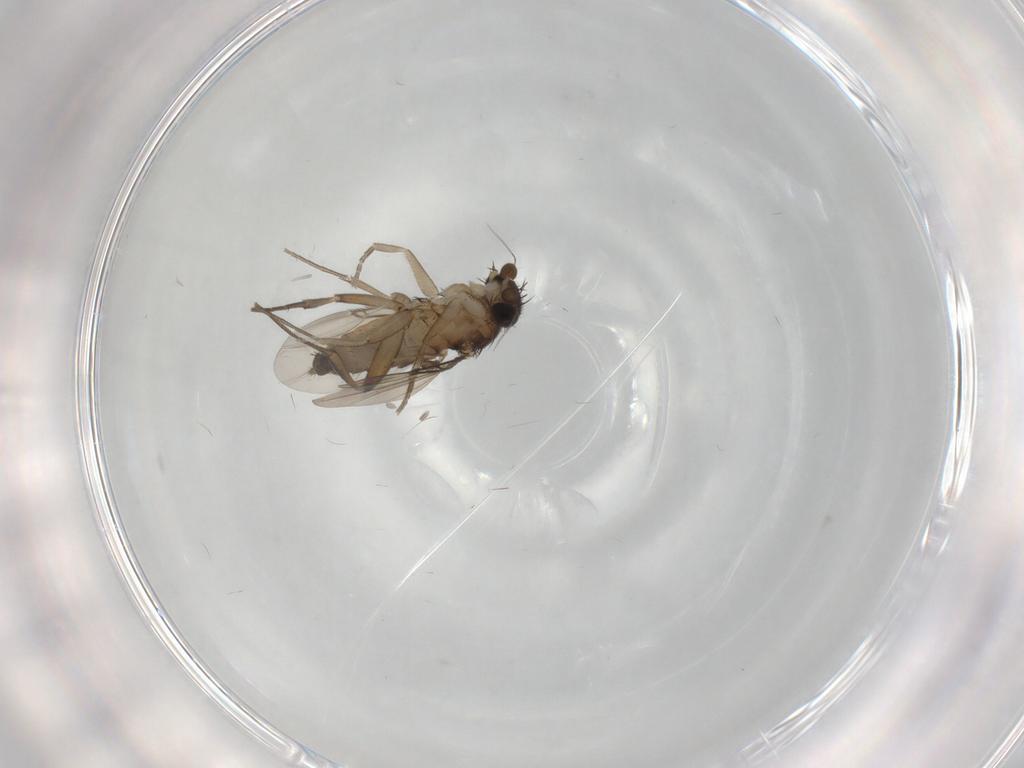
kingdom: Animalia
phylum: Arthropoda
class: Insecta
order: Diptera
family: Phoridae
